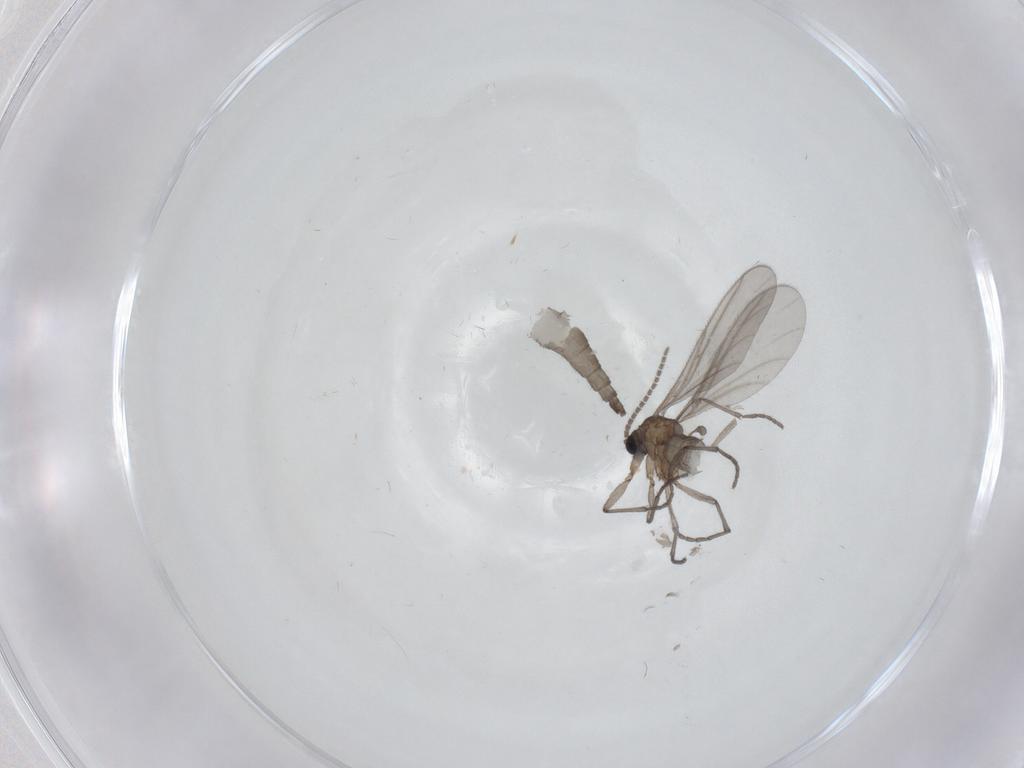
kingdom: Animalia
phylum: Arthropoda
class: Insecta
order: Diptera
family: Sciaridae
